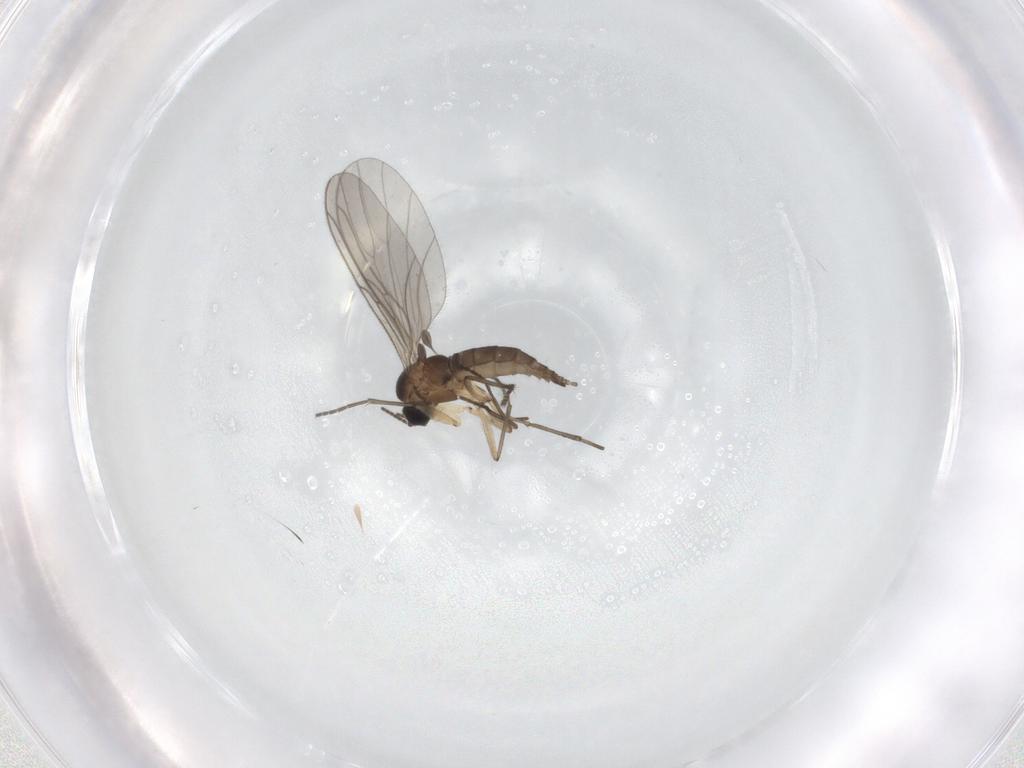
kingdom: Animalia
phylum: Arthropoda
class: Insecta
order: Diptera
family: Sciaridae
